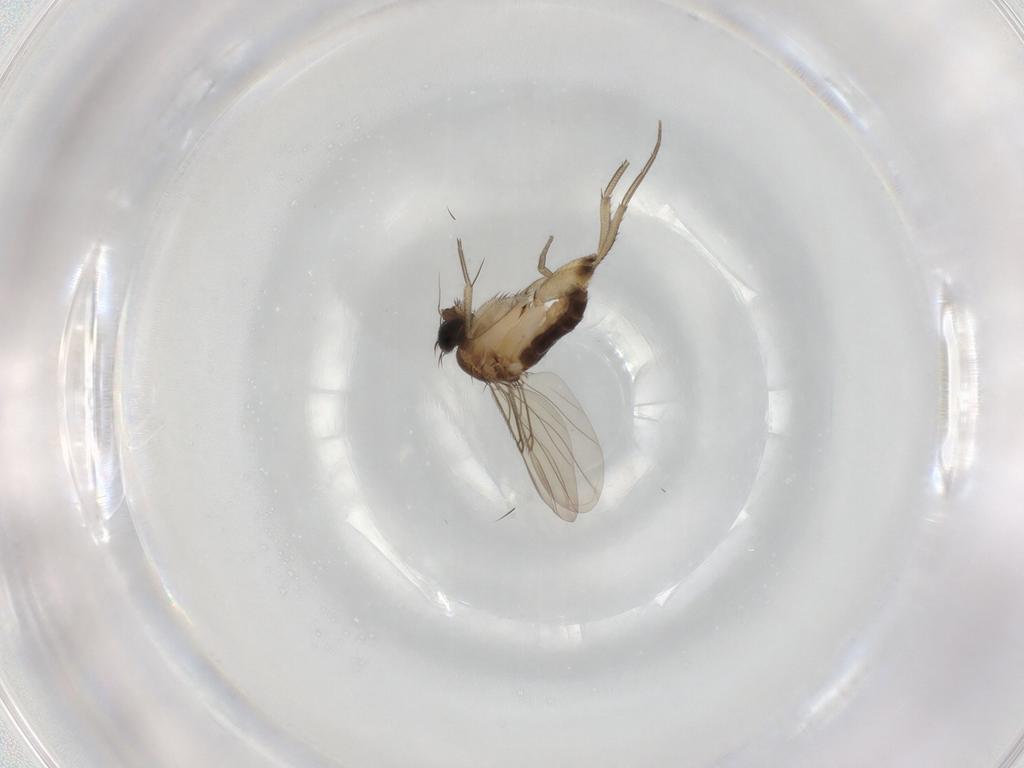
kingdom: Animalia
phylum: Arthropoda
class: Insecta
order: Diptera
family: Phoridae
